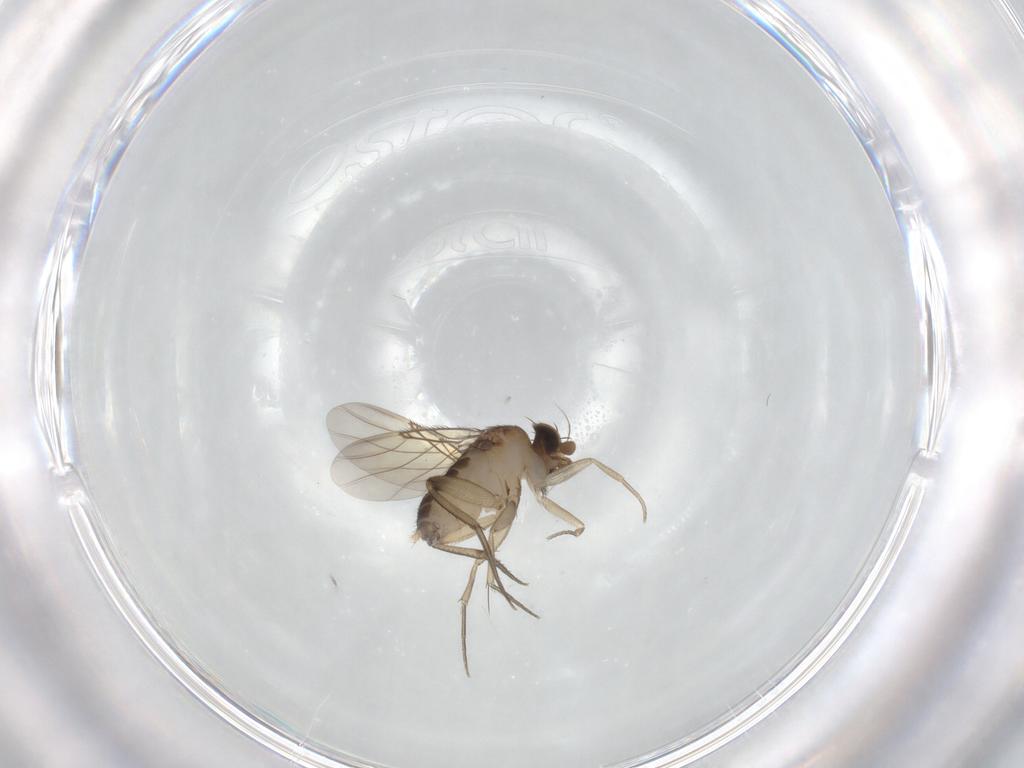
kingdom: Animalia
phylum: Arthropoda
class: Insecta
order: Diptera
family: Phoridae
